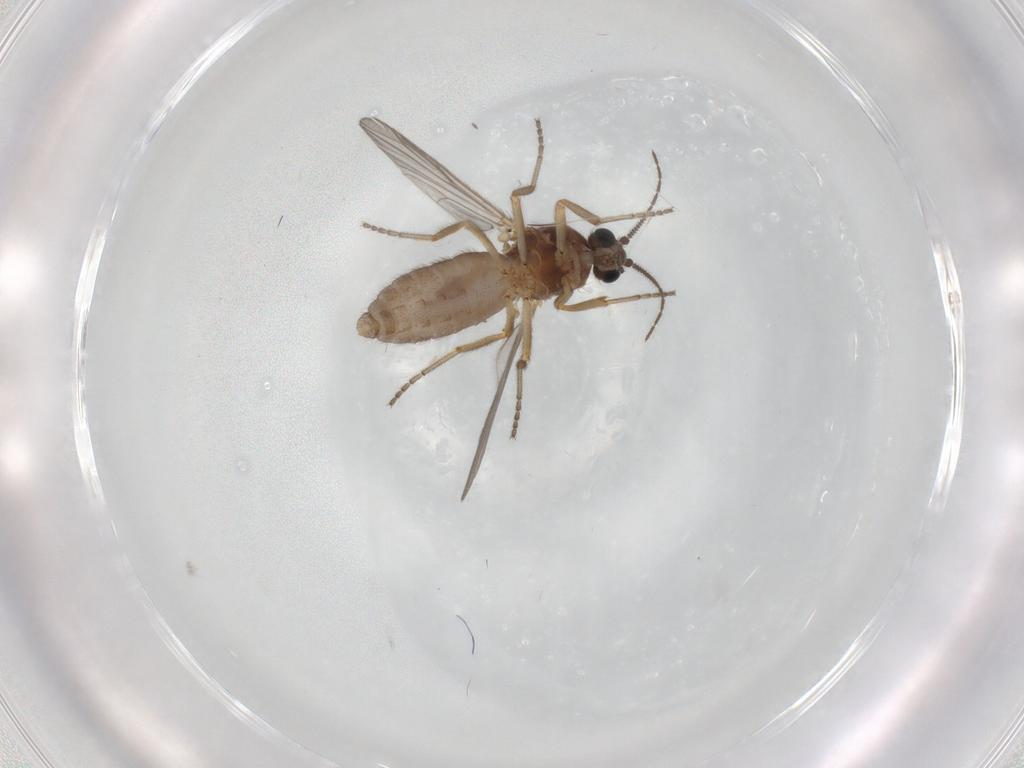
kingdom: Animalia
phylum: Arthropoda
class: Insecta
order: Diptera
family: Ceratopogonidae
